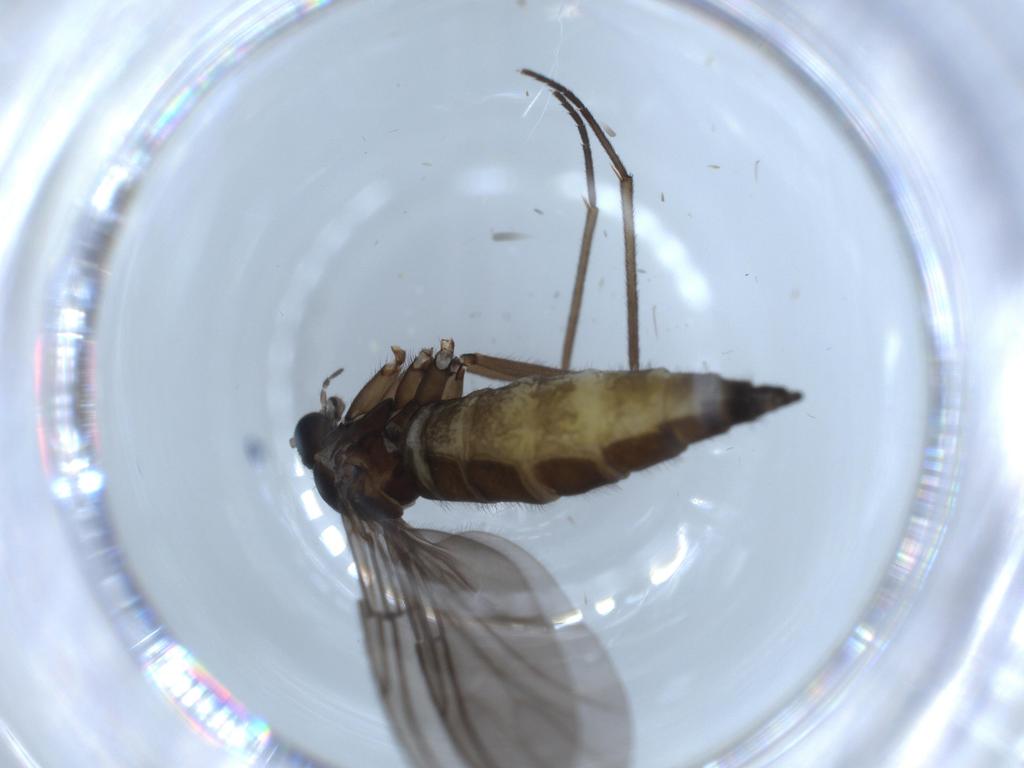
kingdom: Animalia
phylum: Arthropoda
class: Insecta
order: Diptera
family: Sciaridae
